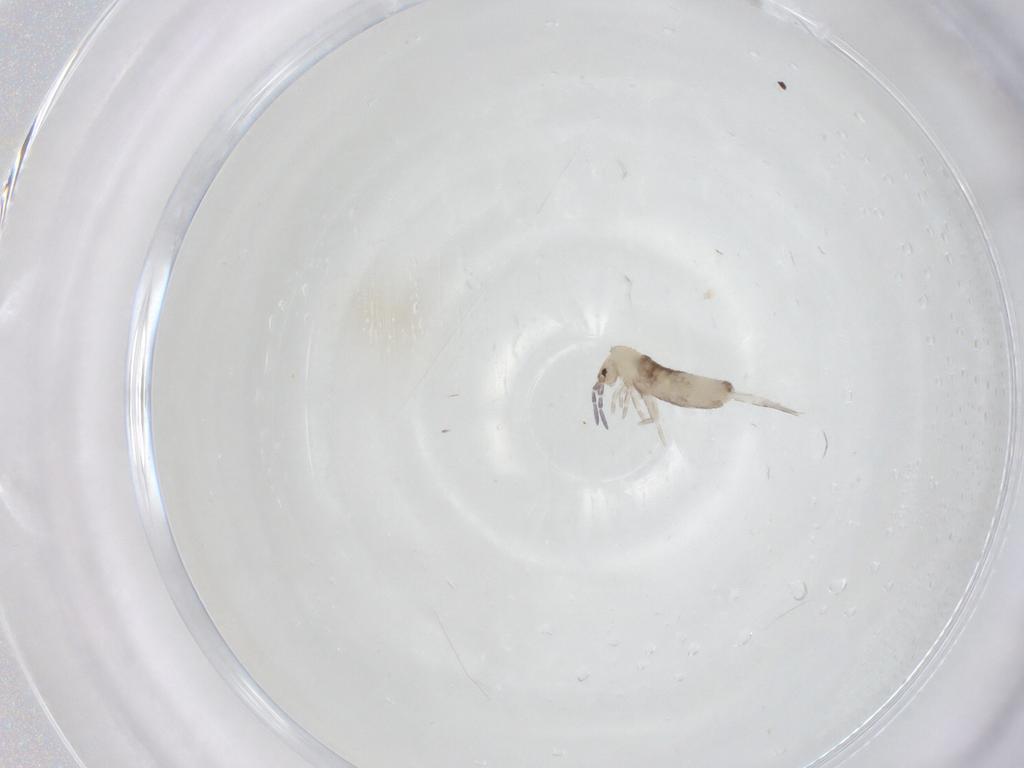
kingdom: Animalia
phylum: Arthropoda
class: Collembola
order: Entomobryomorpha
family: Entomobryidae
